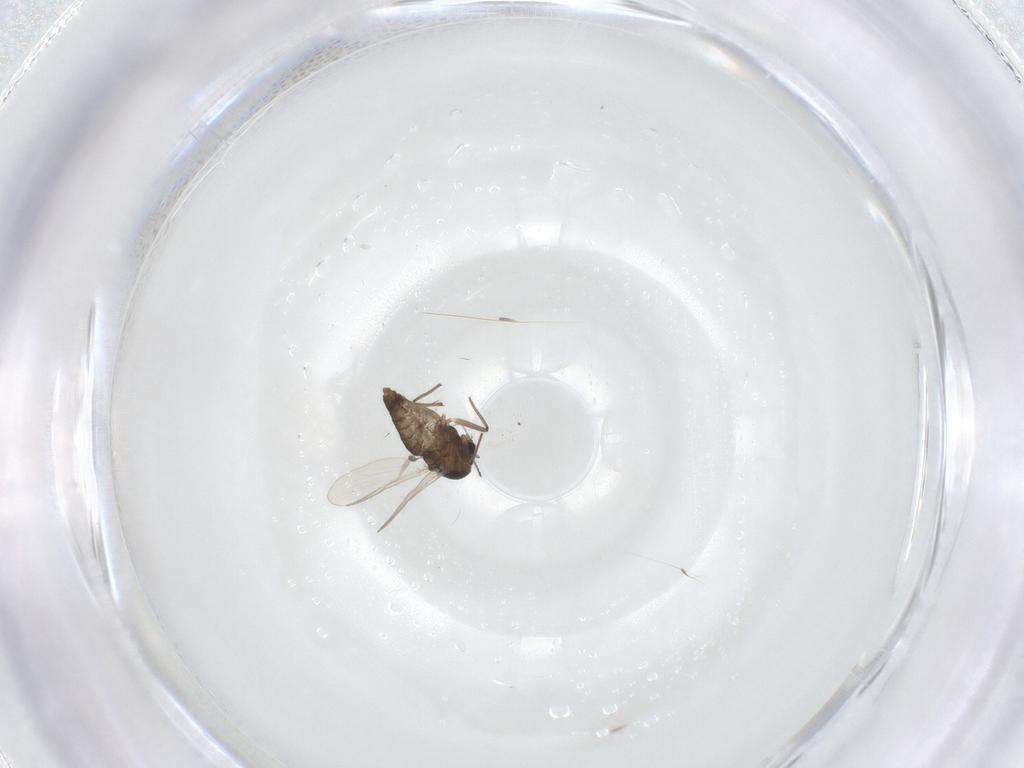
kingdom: Animalia
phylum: Arthropoda
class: Insecta
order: Diptera
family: Chironomidae
